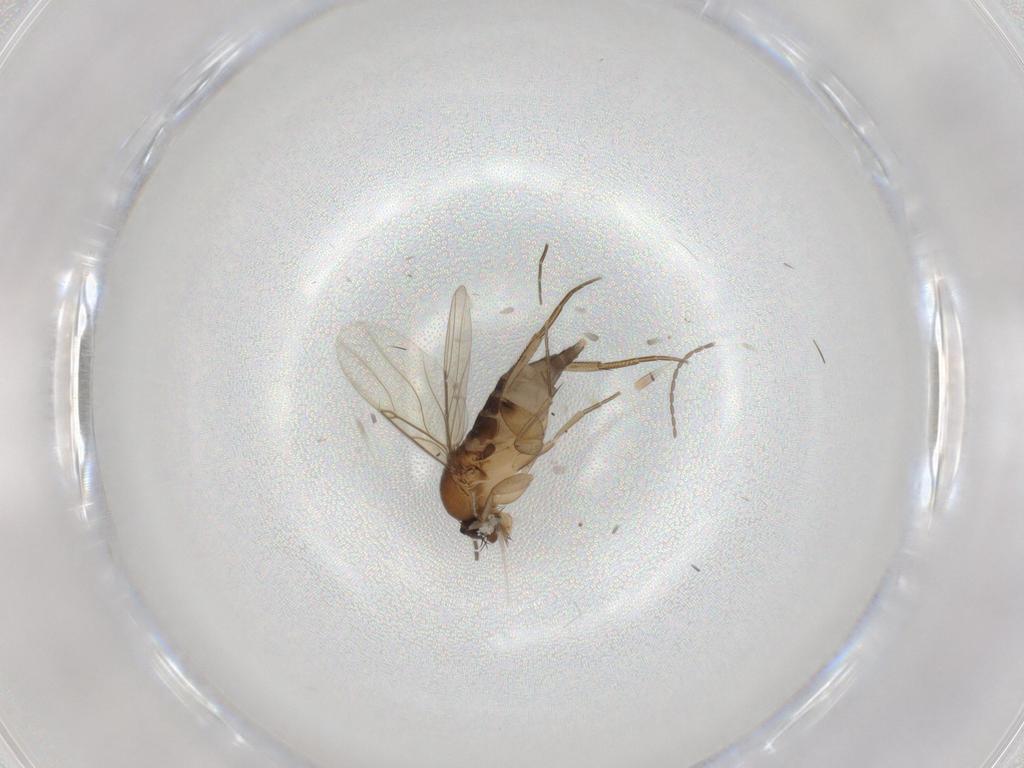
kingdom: Animalia
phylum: Arthropoda
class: Insecta
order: Diptera
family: Phoridae
